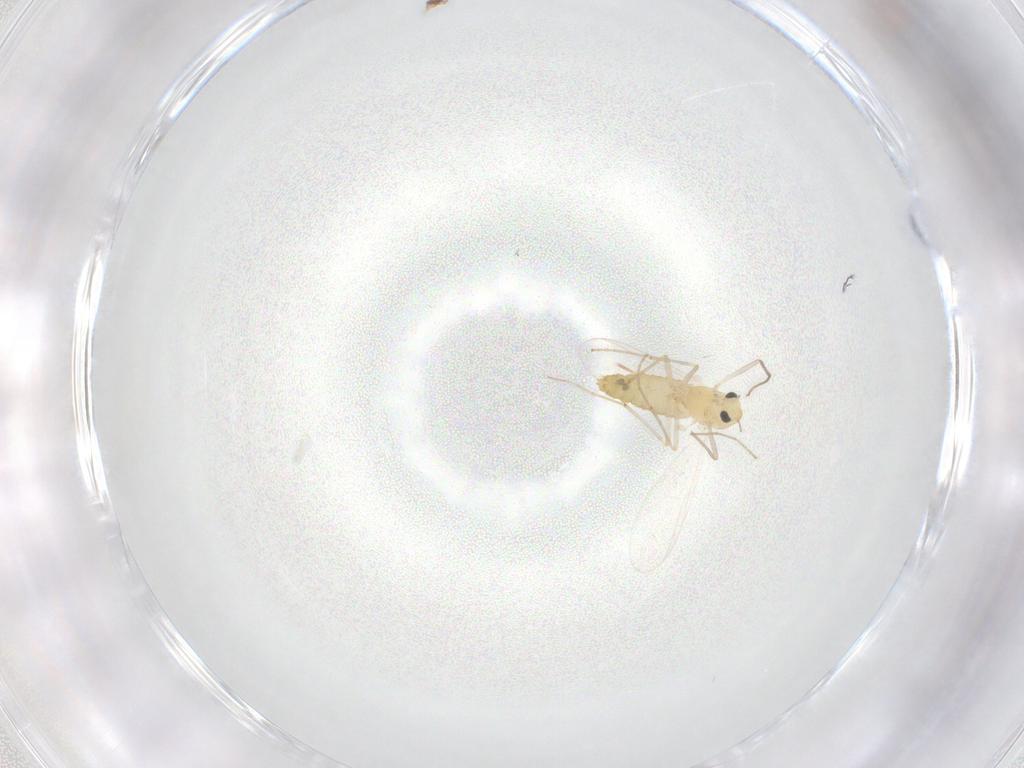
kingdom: Animalia
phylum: Arthropoda
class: Insecta
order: Diptera
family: Chironomidae
